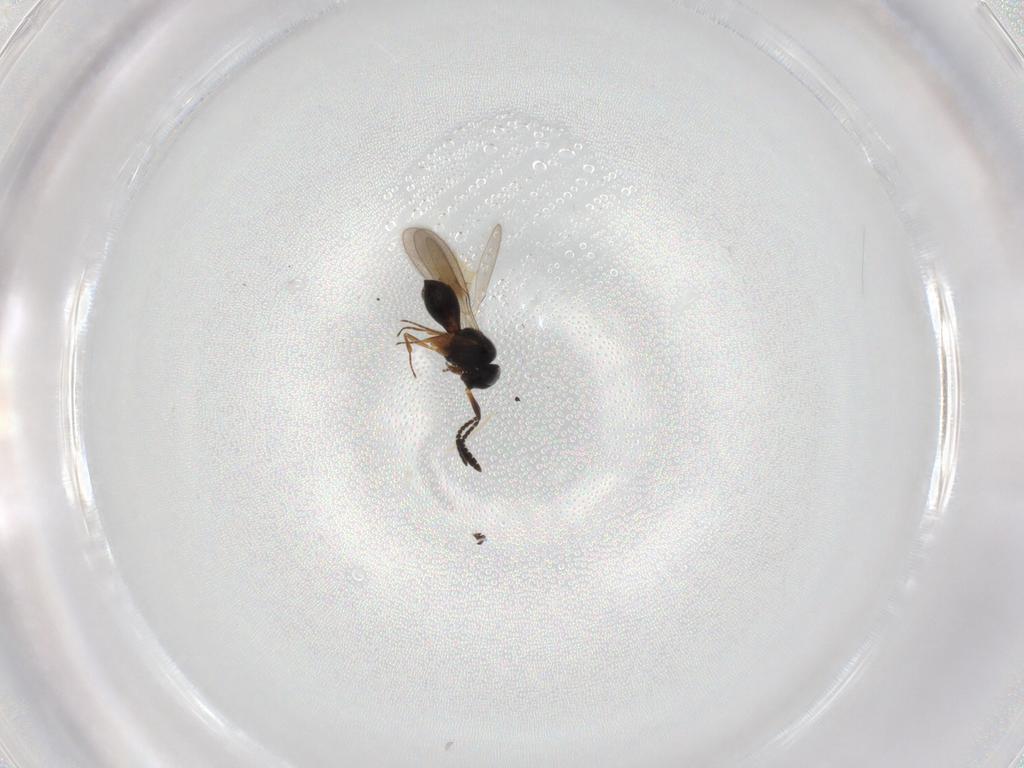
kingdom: Animalia
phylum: Arthropoda
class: Insecta
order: Hymenoptera
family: Scelionidae
